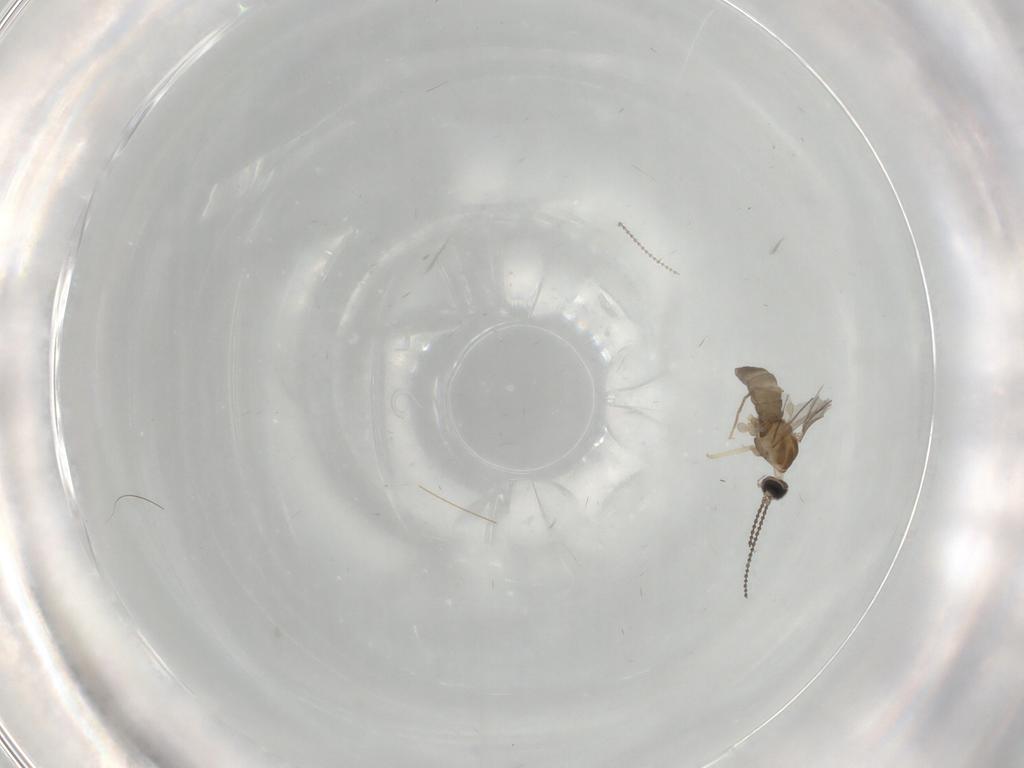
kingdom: Animalia
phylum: Arthropoda
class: Insecta
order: Diptera
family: Cecidomyiidae
